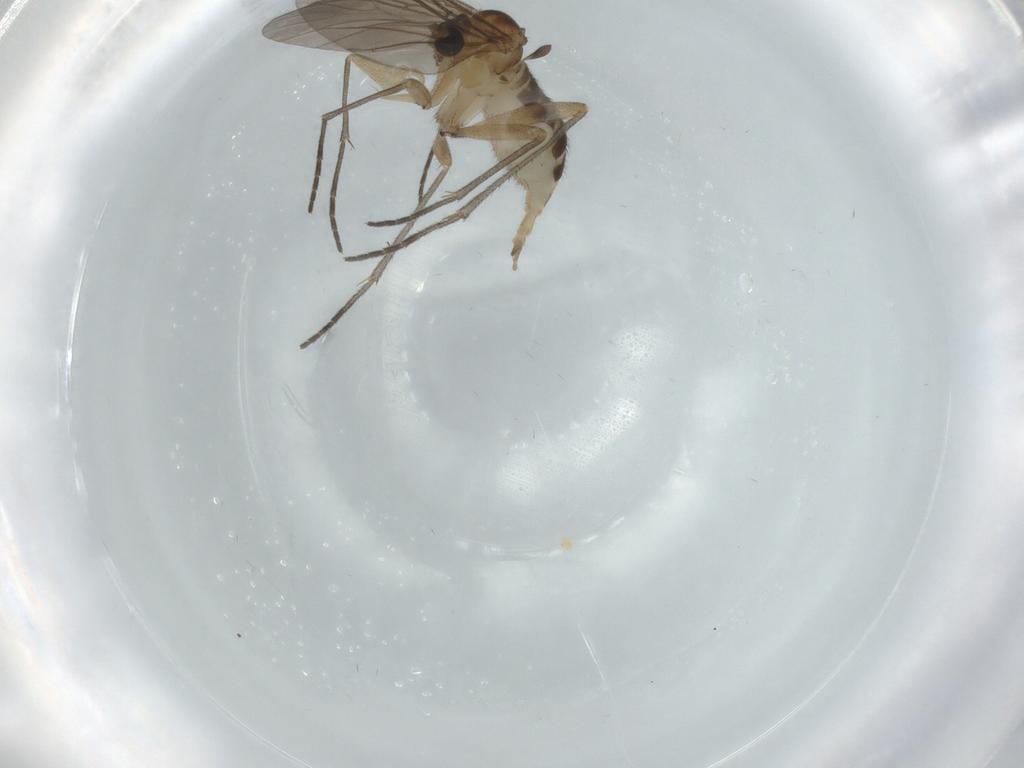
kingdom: Animalia
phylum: Arthropoda
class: Insecta
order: Diptera
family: Sciaridae
